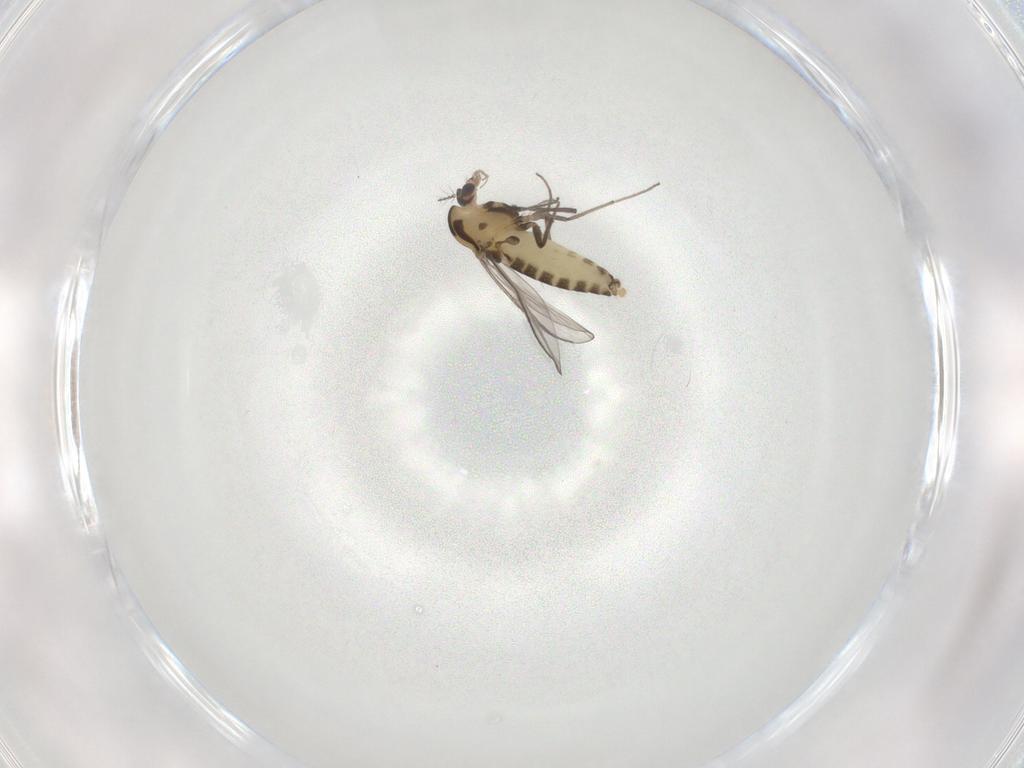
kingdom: Animalia
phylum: Arthropoda
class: Insecta
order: Diptera
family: Chironomidae
